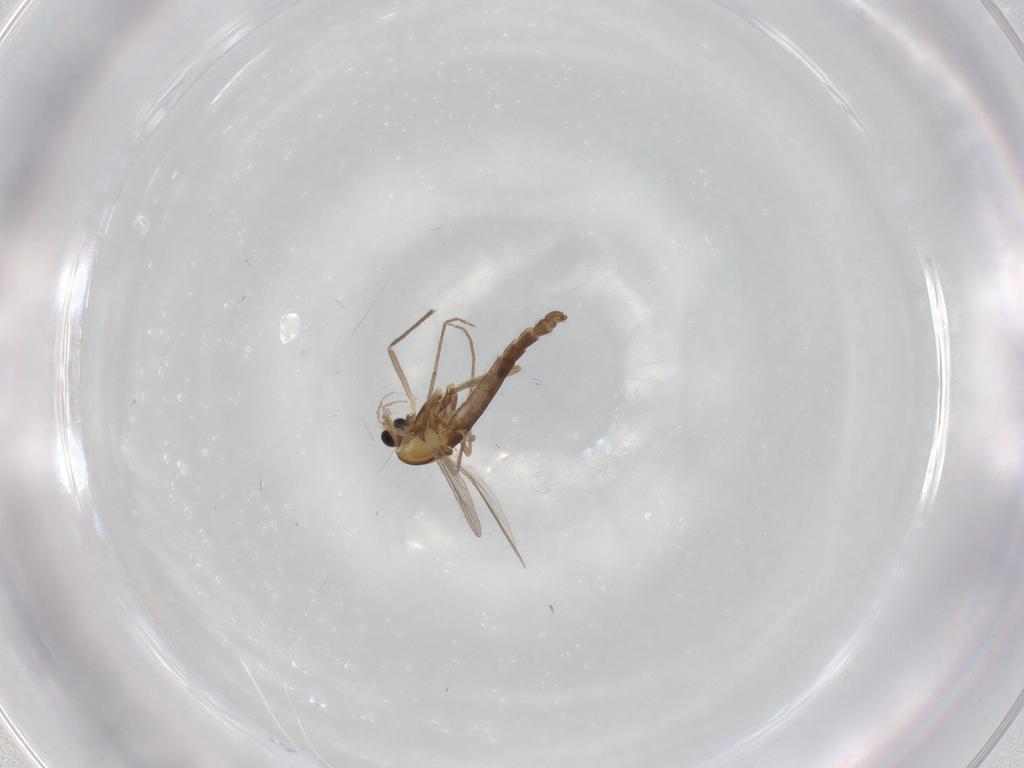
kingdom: Animalia
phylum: Arthropoda
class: Insecta
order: Diptera
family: Chironomidae
